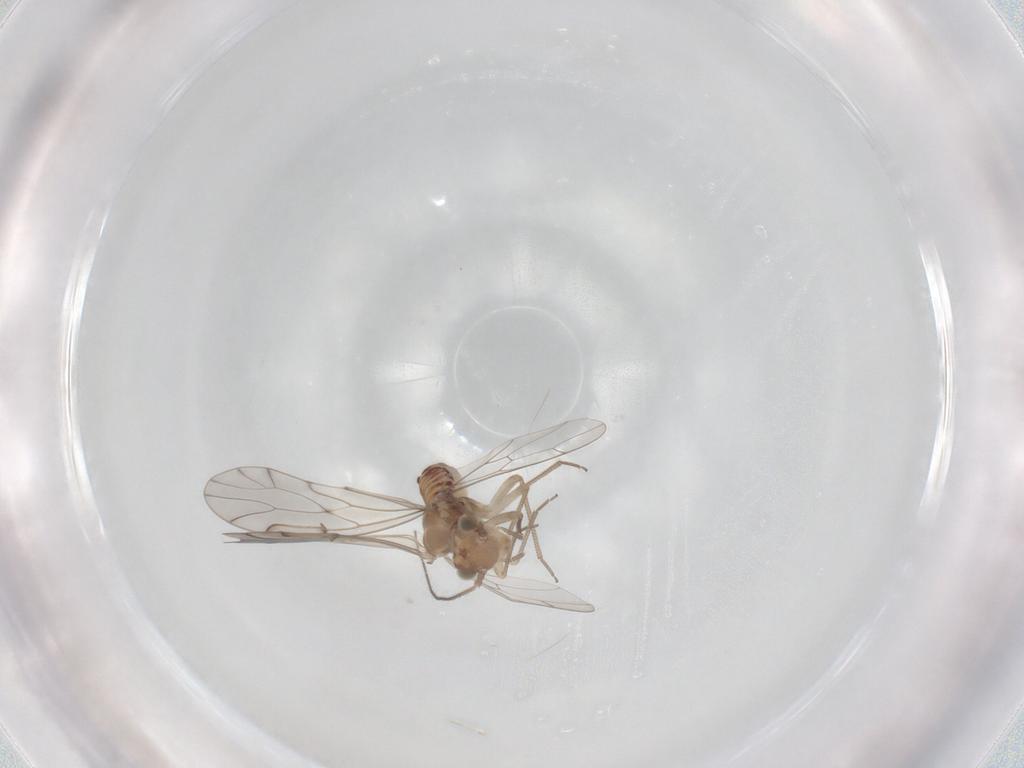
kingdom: Animalia
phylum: Arthropoda
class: Insecta
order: Psocodea
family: Ectopsocidae
